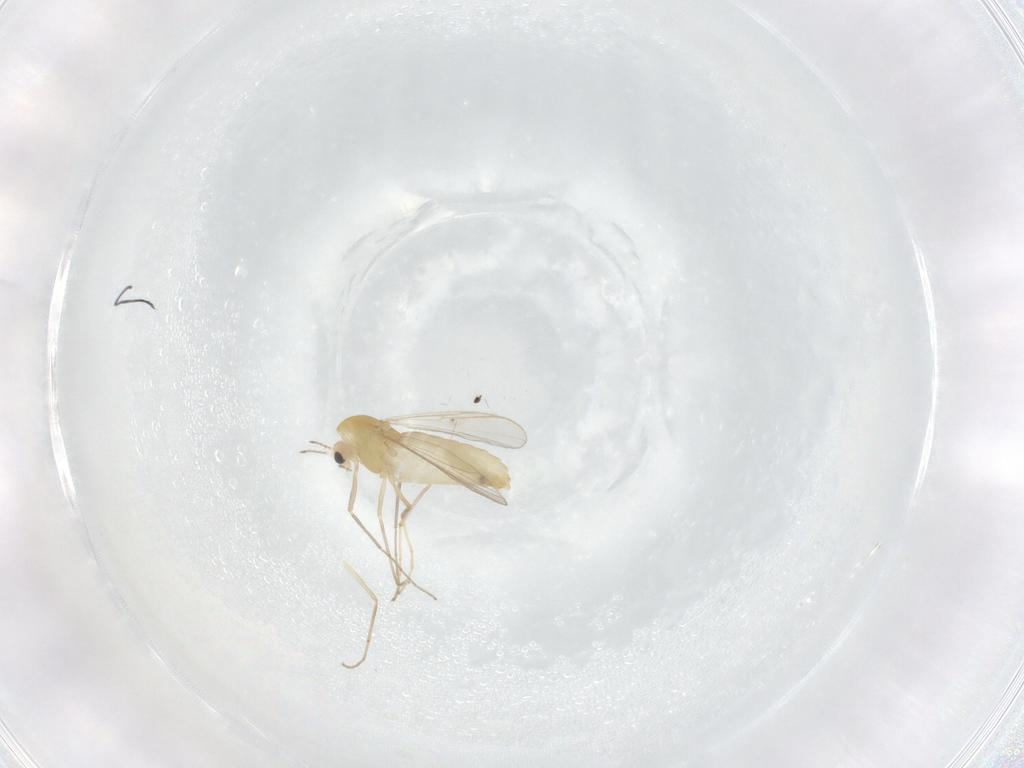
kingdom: Animalia
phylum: Arthropoda
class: Insecta
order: Diptera
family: Chironomidae
